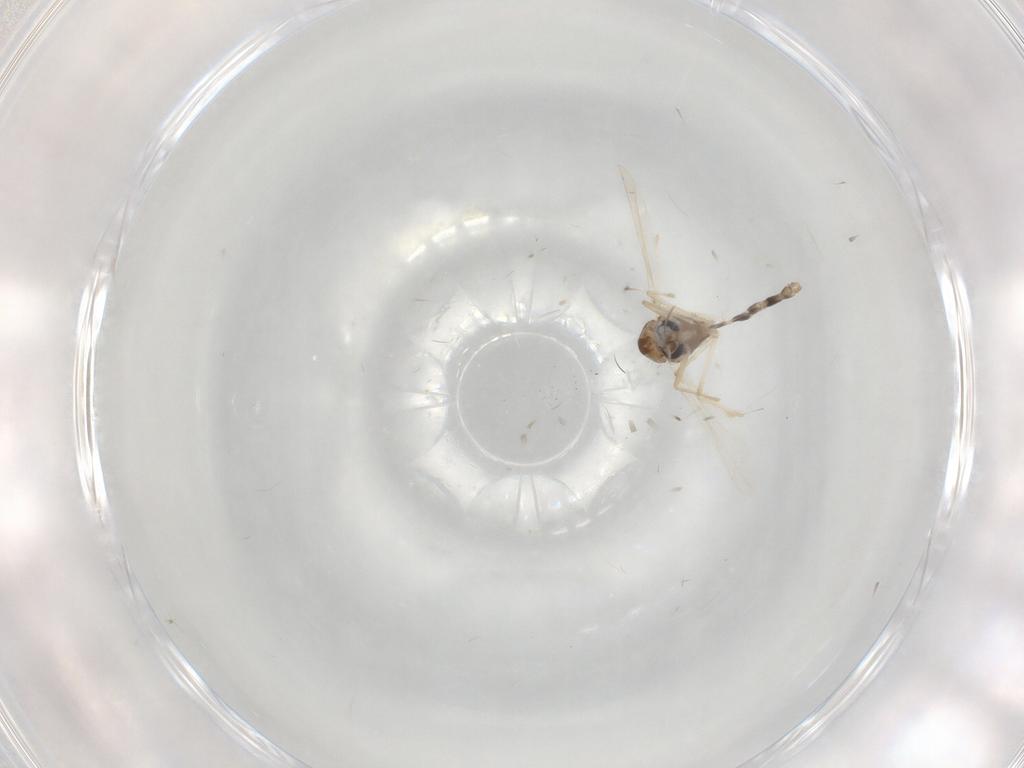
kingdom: Animalia
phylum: Arthropoda
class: Insecta
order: Diptera
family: Chironomidae
